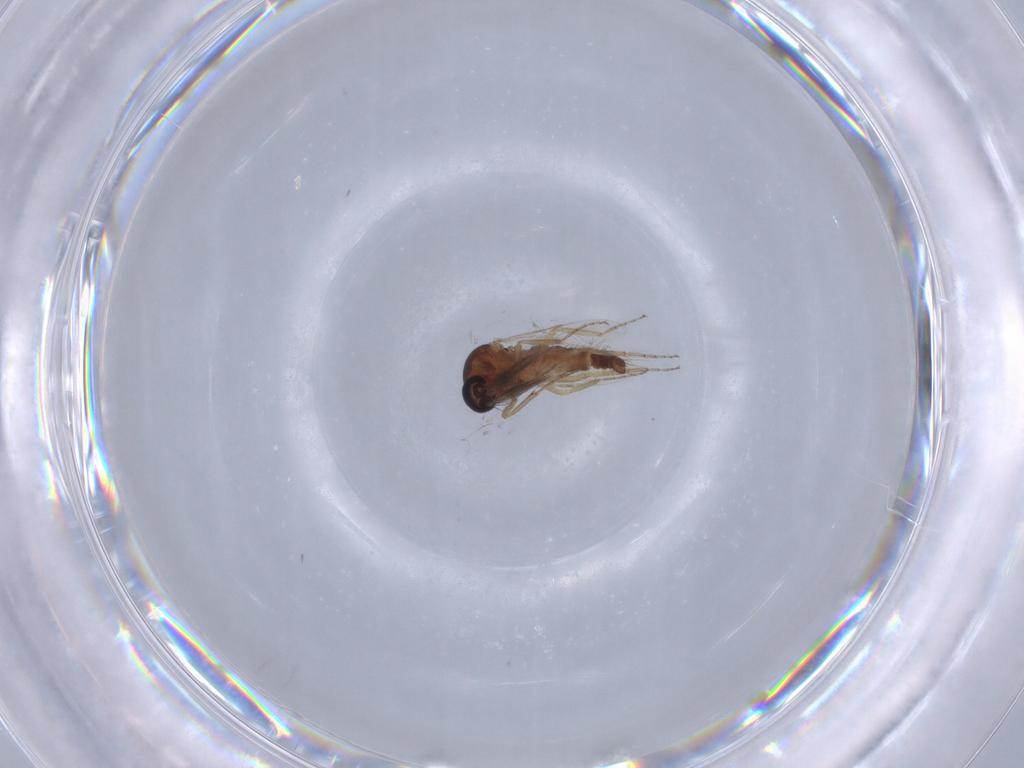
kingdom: Animalia
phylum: Arthropoda
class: Insecta
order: Diptera
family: Ceratopogonidae
